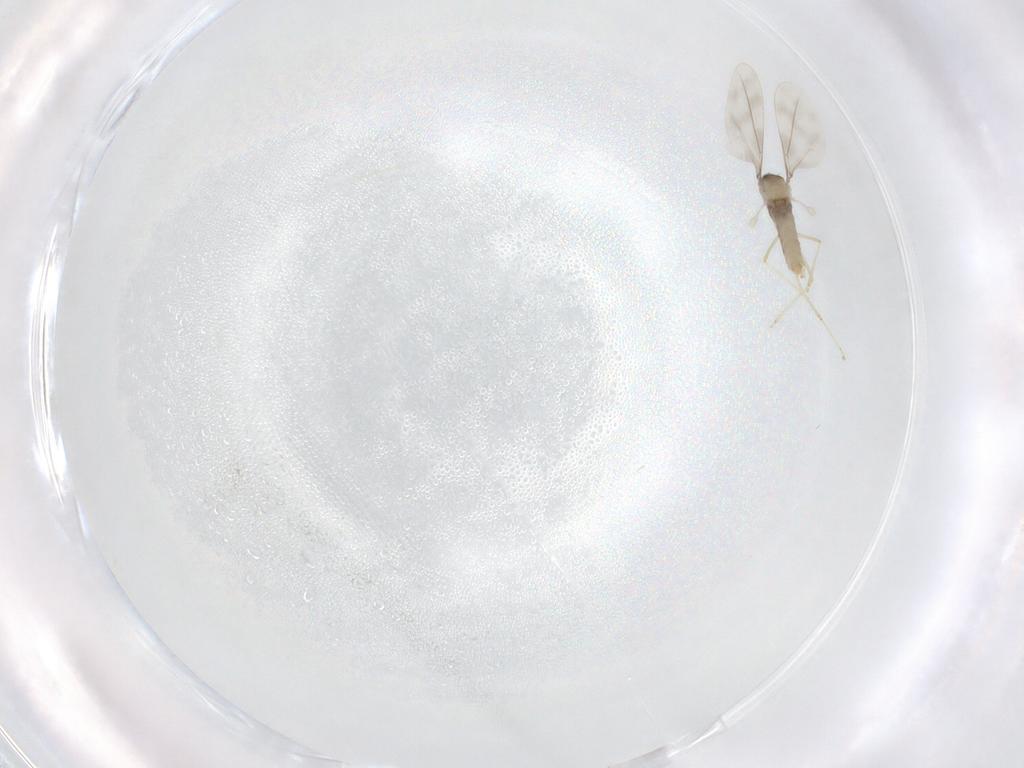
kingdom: Animalia
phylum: Arthropoda
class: Insecta
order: Diptera
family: Cecidomyiidae
